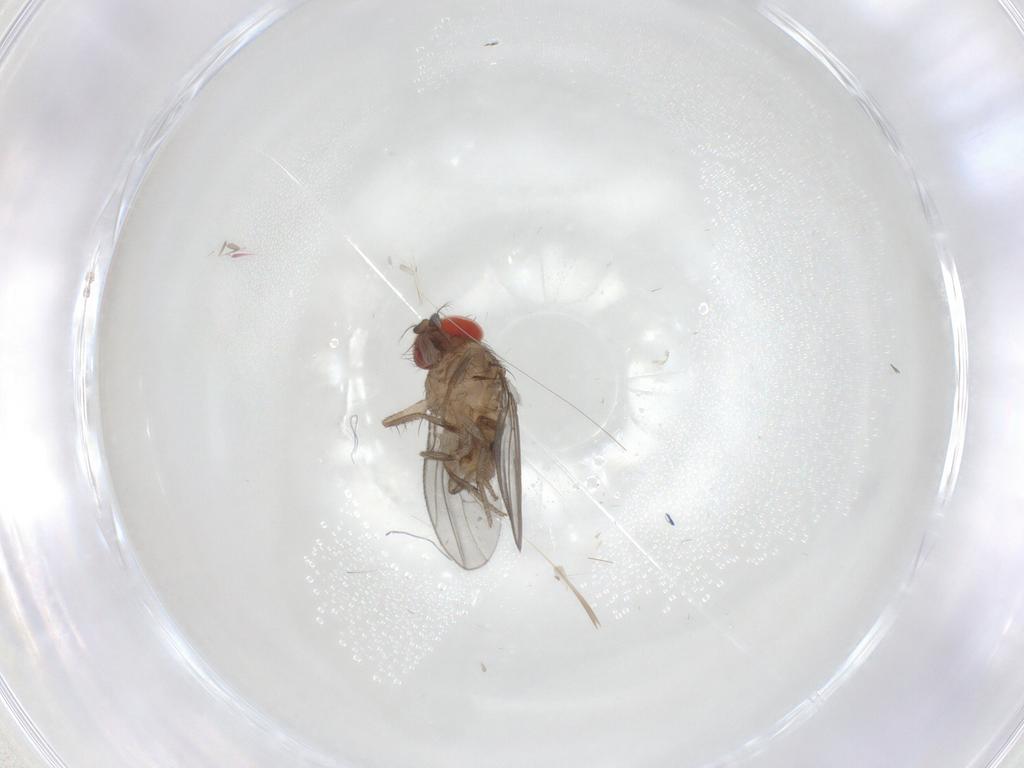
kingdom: Animalia
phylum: Arthropoda
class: Insecta
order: Diptera
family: Drosophilidae
